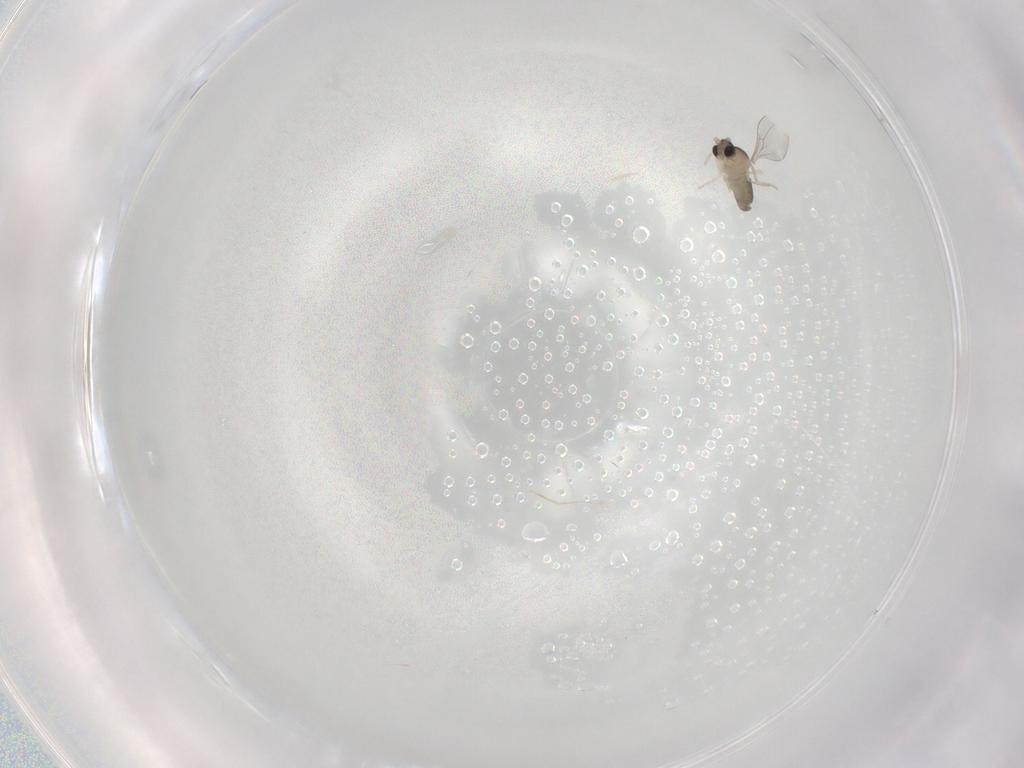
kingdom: Animalia
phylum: Arthropoda
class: Insecta
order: Diptera
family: Cecidomyiidae
